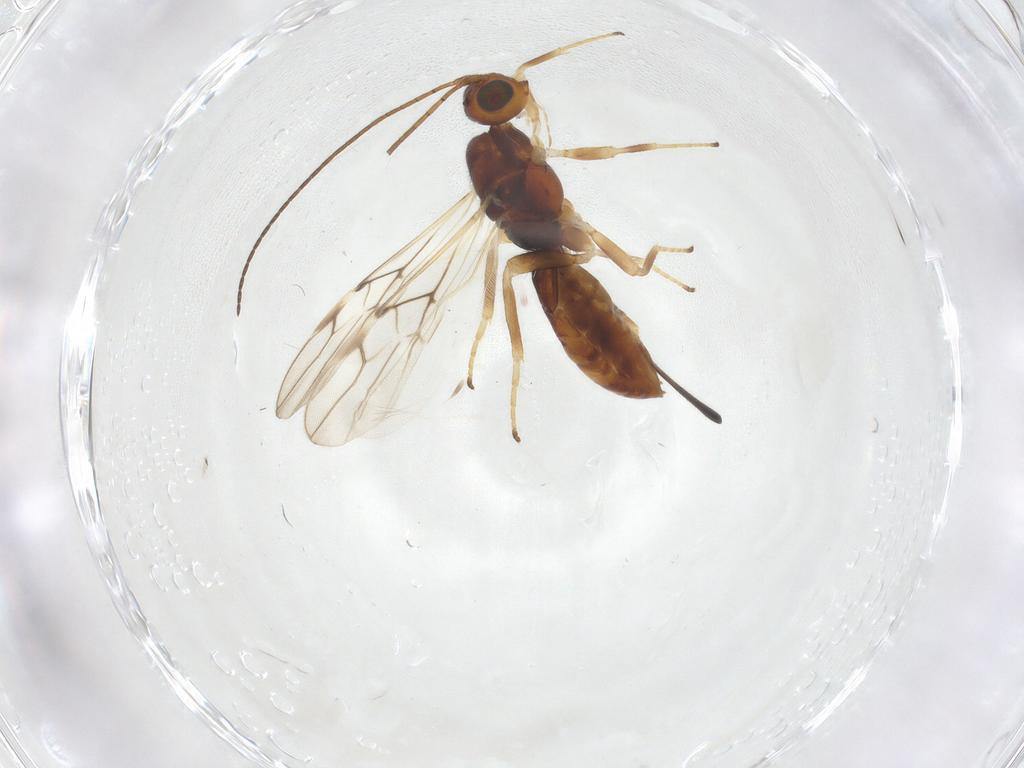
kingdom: Animalia
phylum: Arthropoda
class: Insecta
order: Hymenoptera
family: Braconidae
